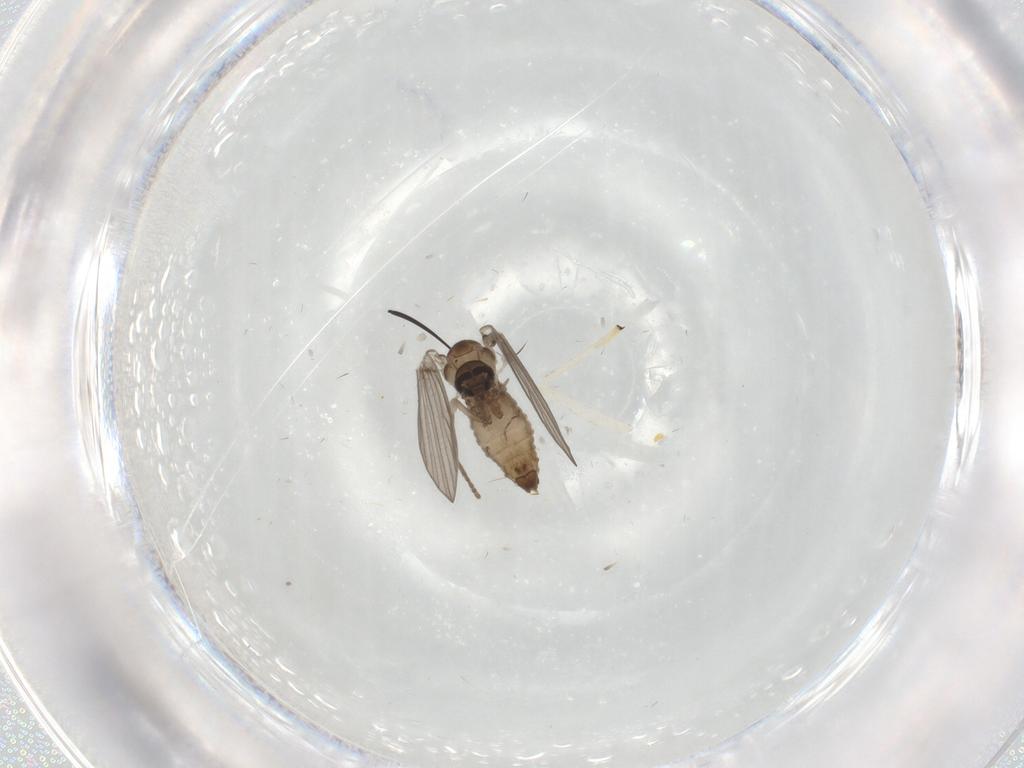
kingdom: Animalia
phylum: Arthropoda
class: Insecta
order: Diptera
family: Psychodidae
